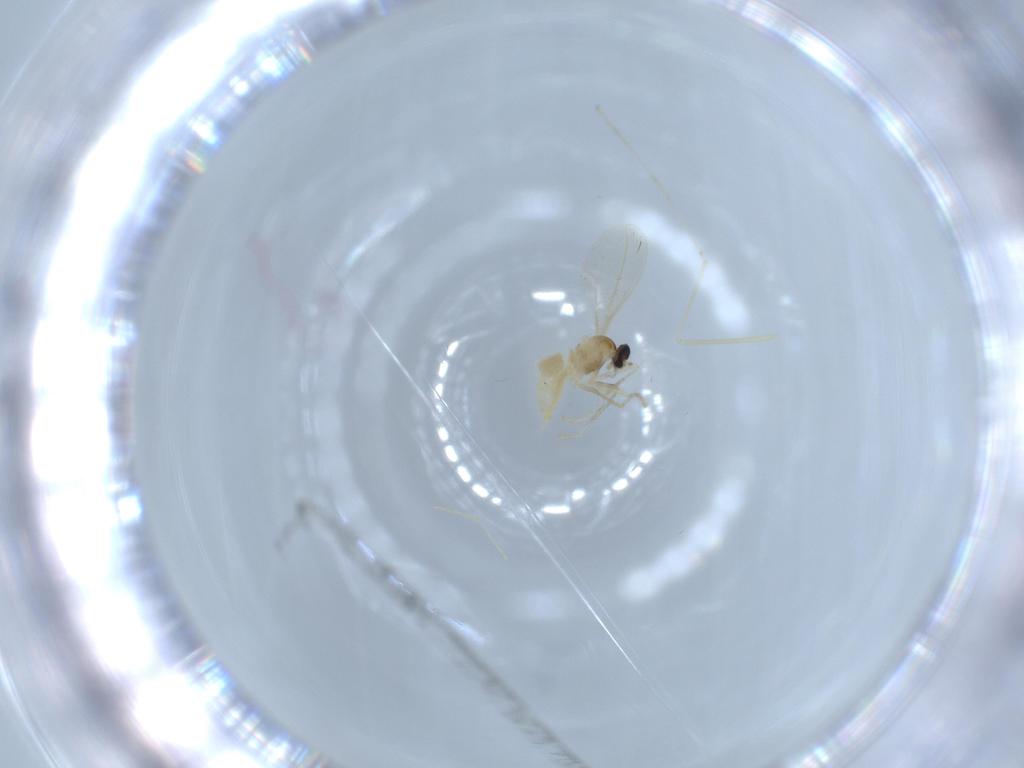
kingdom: Animalia
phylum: Arthropoda
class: Insecta
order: Diptera
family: Cecidomyiidae
